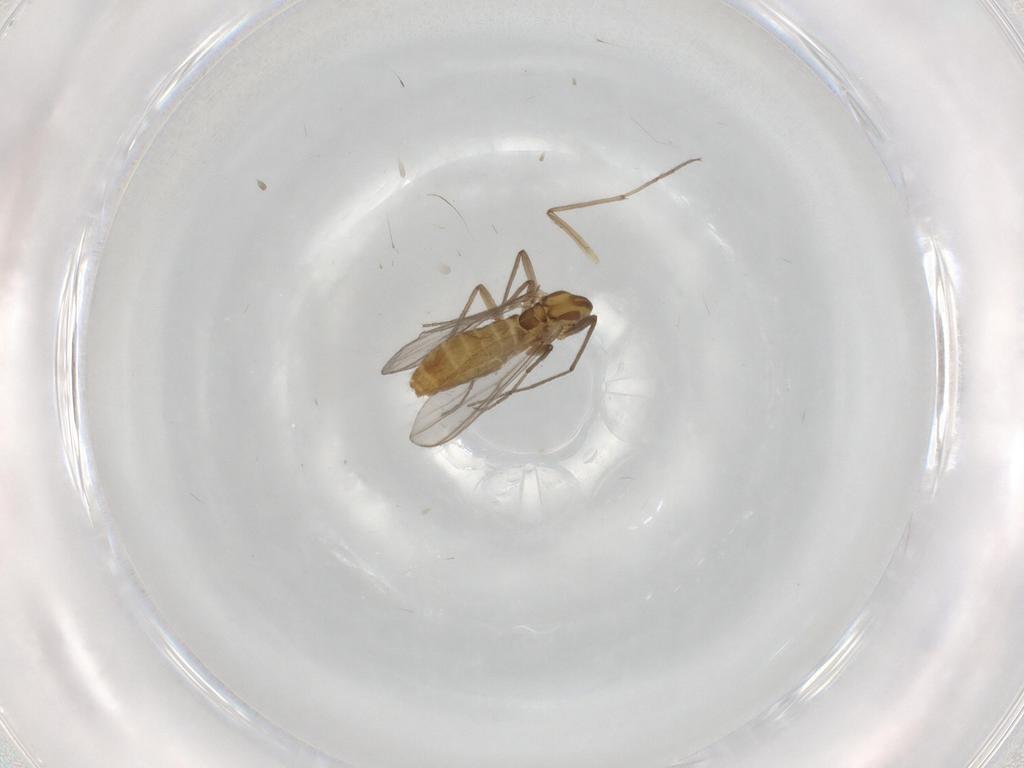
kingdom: Animalia
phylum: Arthropoda
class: Insecta
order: Diptera
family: Chironomidae
